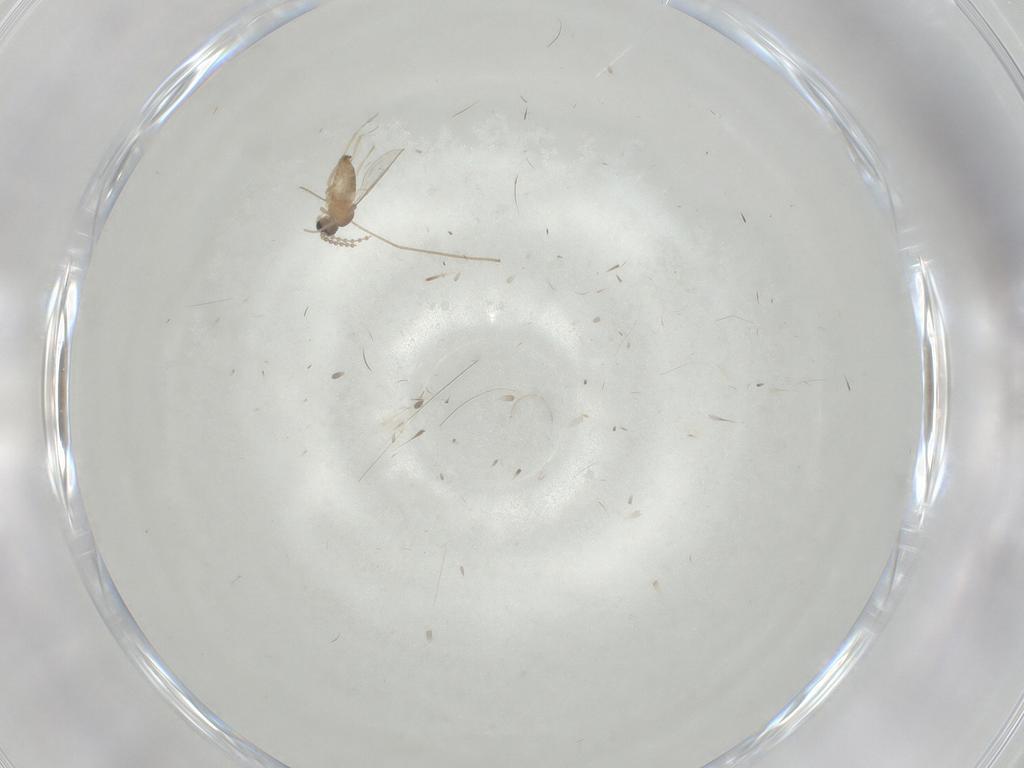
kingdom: Animalia
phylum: Arthropoda
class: Insecta
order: Diptera
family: Cecidomyiidae
